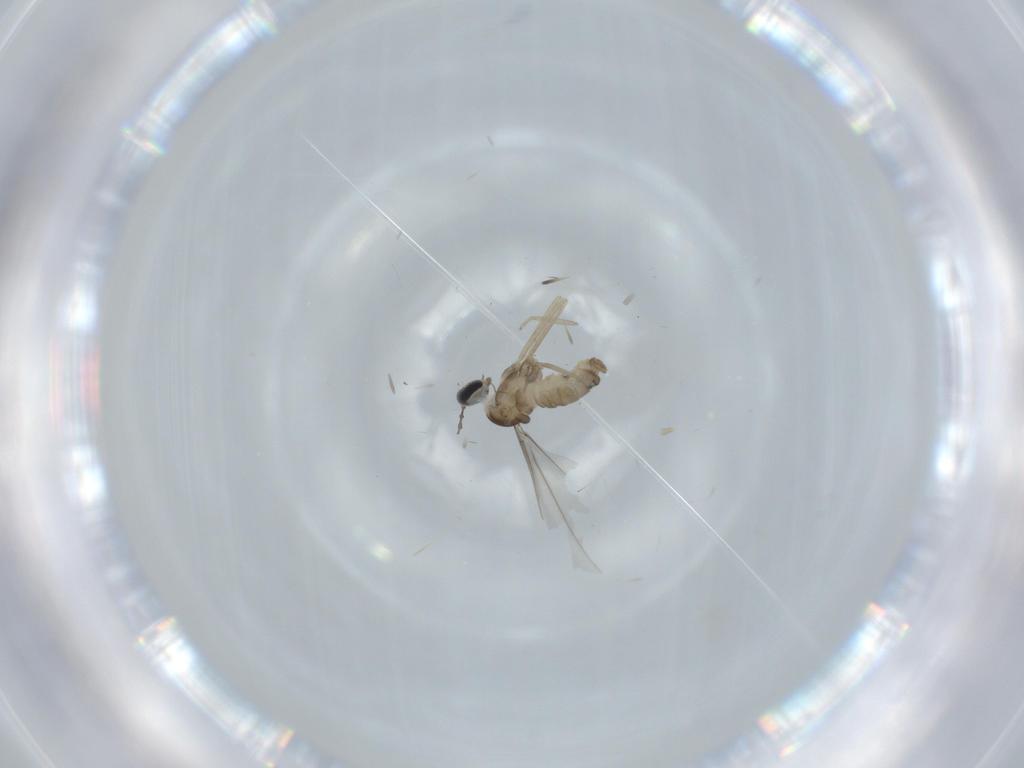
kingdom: Animalia
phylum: Arthropoda
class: Insecta
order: Diptera
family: Cecidomyiidae
